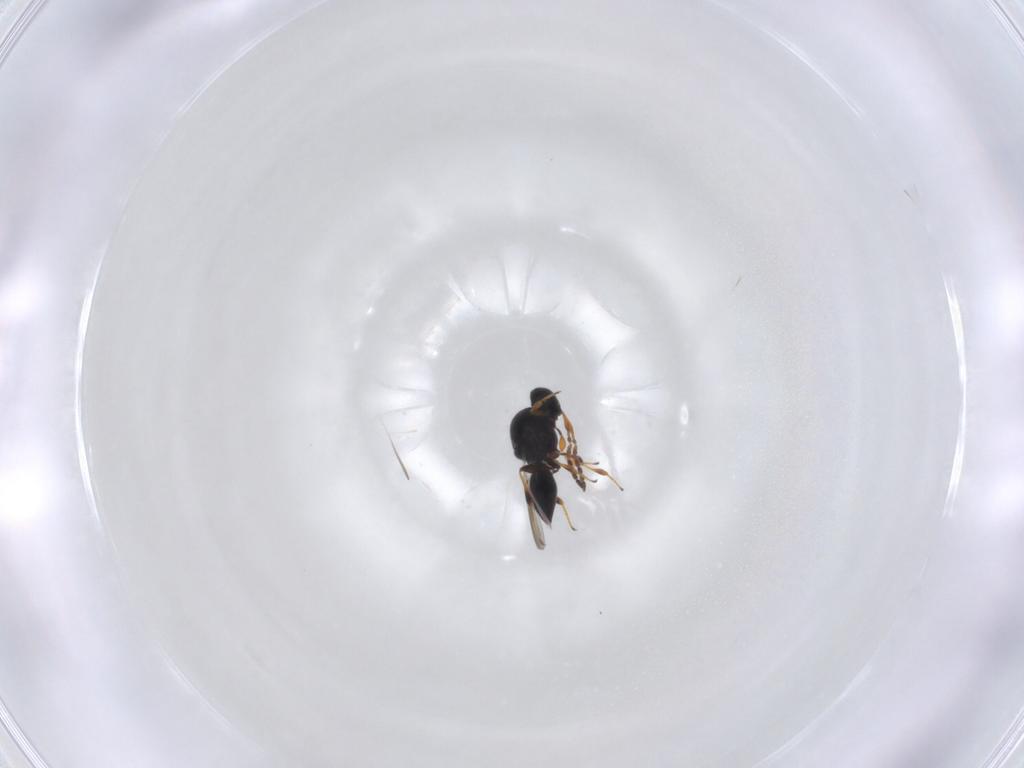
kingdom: Animalia
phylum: Arthropoda
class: Insecta
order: Hymenoptera
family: Platygastridae
